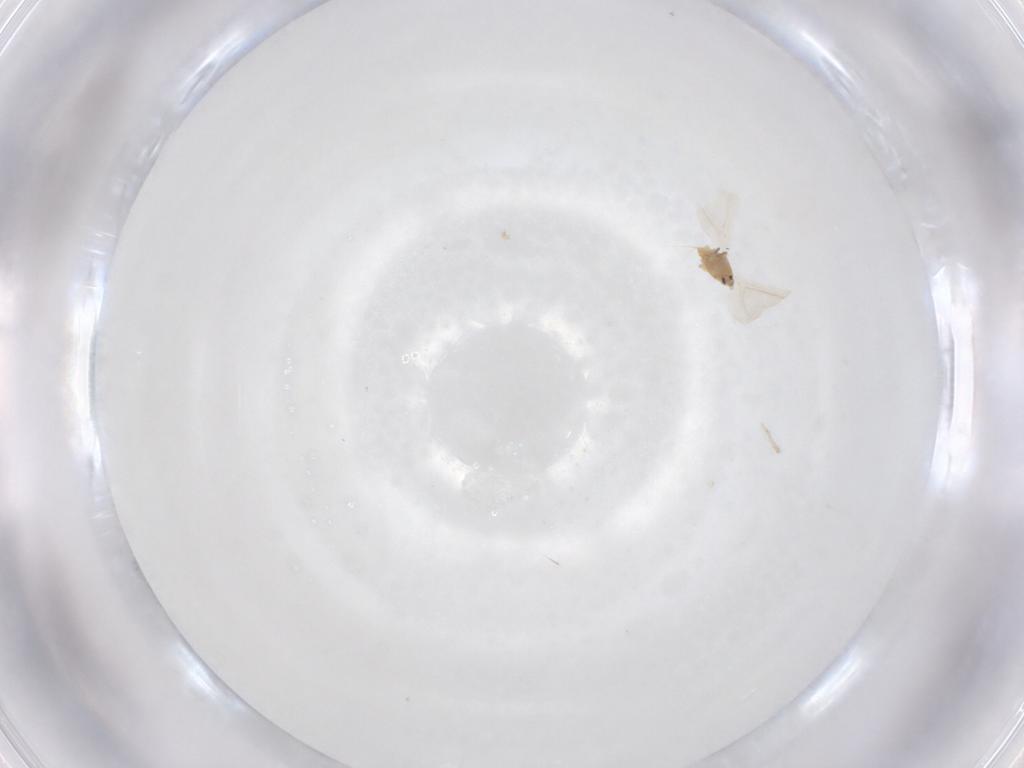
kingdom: Animalia
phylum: Arthropoda
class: Insecta
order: Hemiptera
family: Diaspididae
